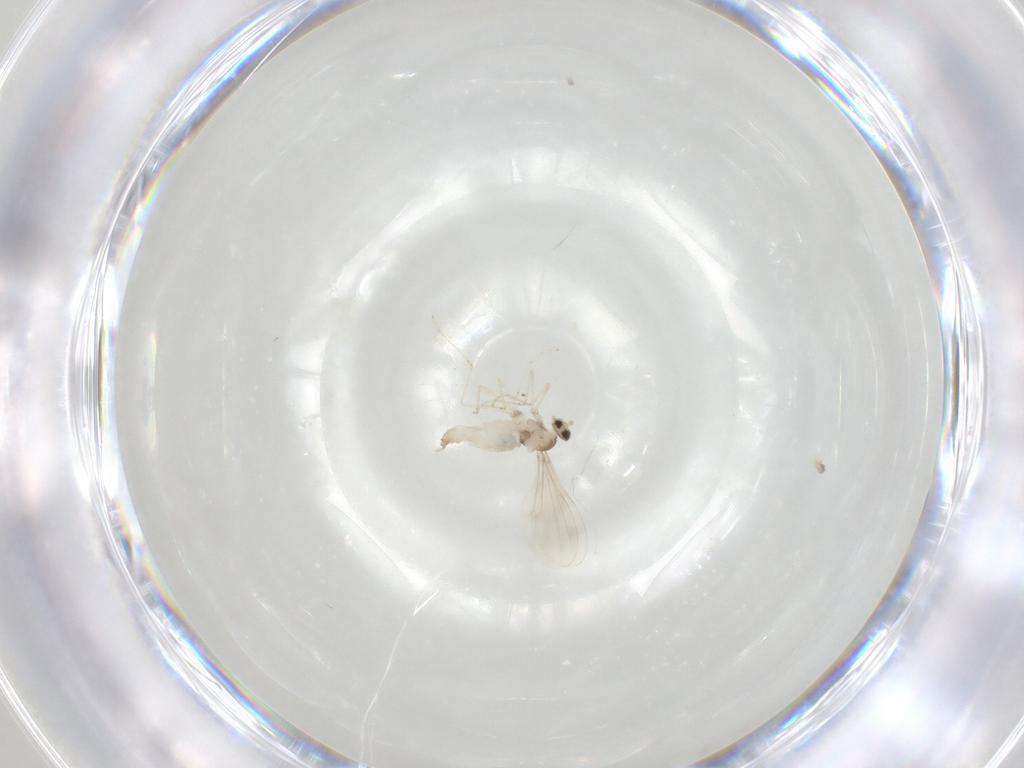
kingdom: Animalia
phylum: Arthropoda
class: Insecta
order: Diptera
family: Cecidomyiidae
